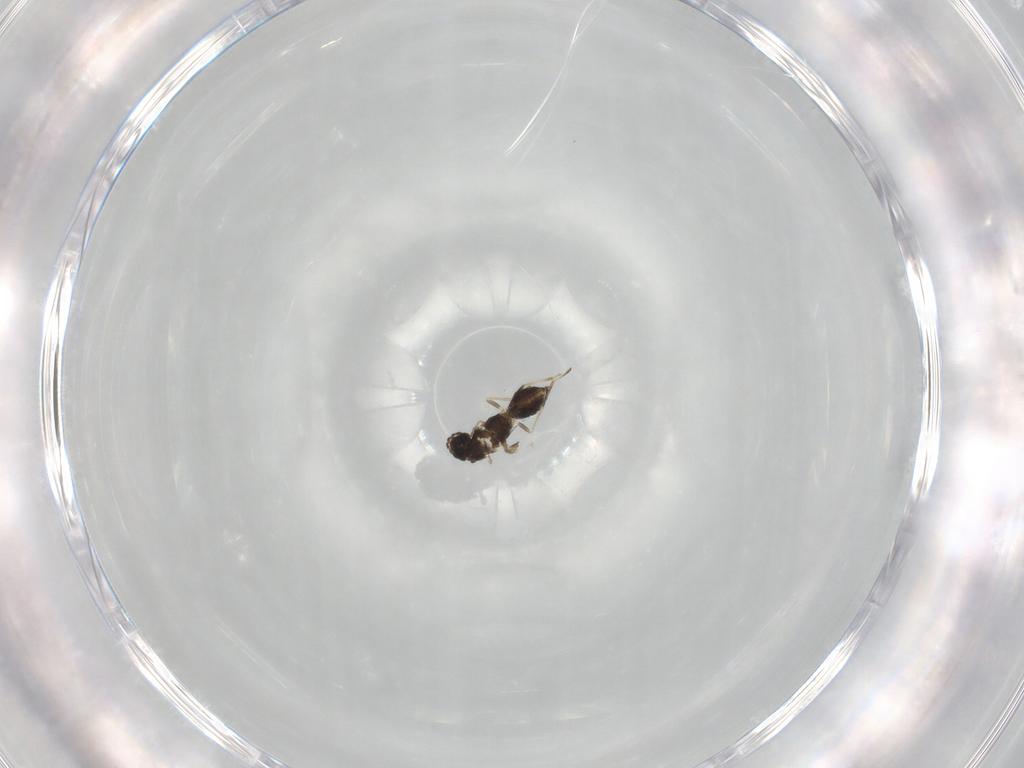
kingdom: Animalia
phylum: Arthropoda
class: Insecta
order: Hymenoptera
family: Eulophidae
